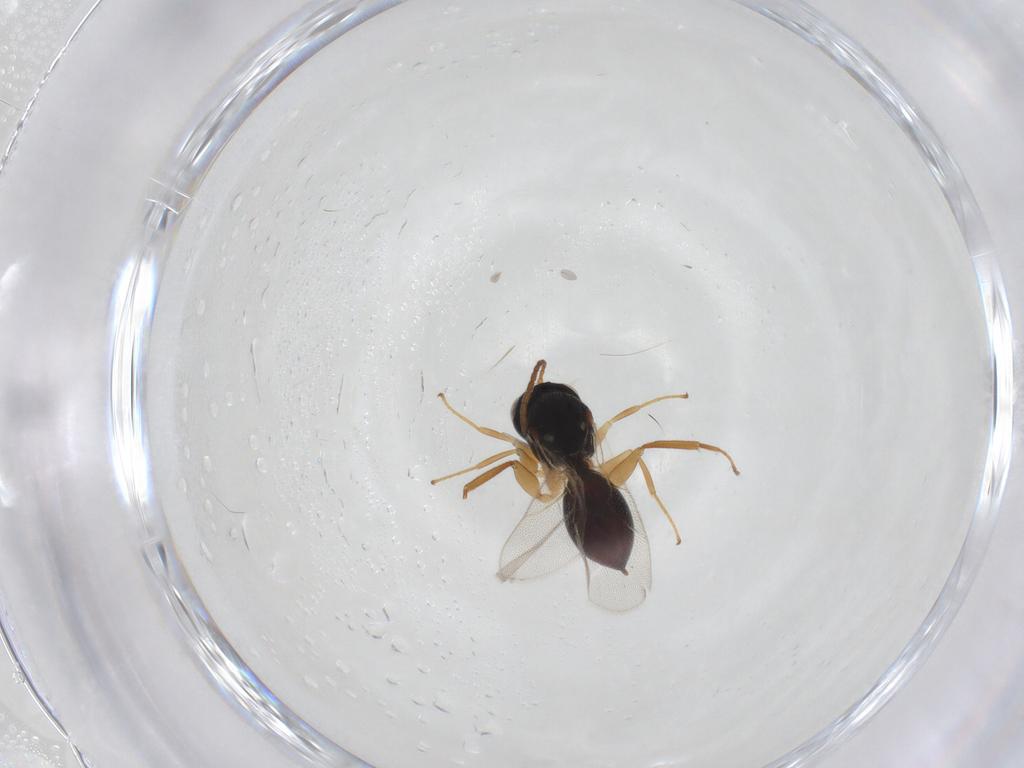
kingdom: Animalia
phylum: Arthropoda
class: Insecta
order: Hymenoptera
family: Cynipidae
